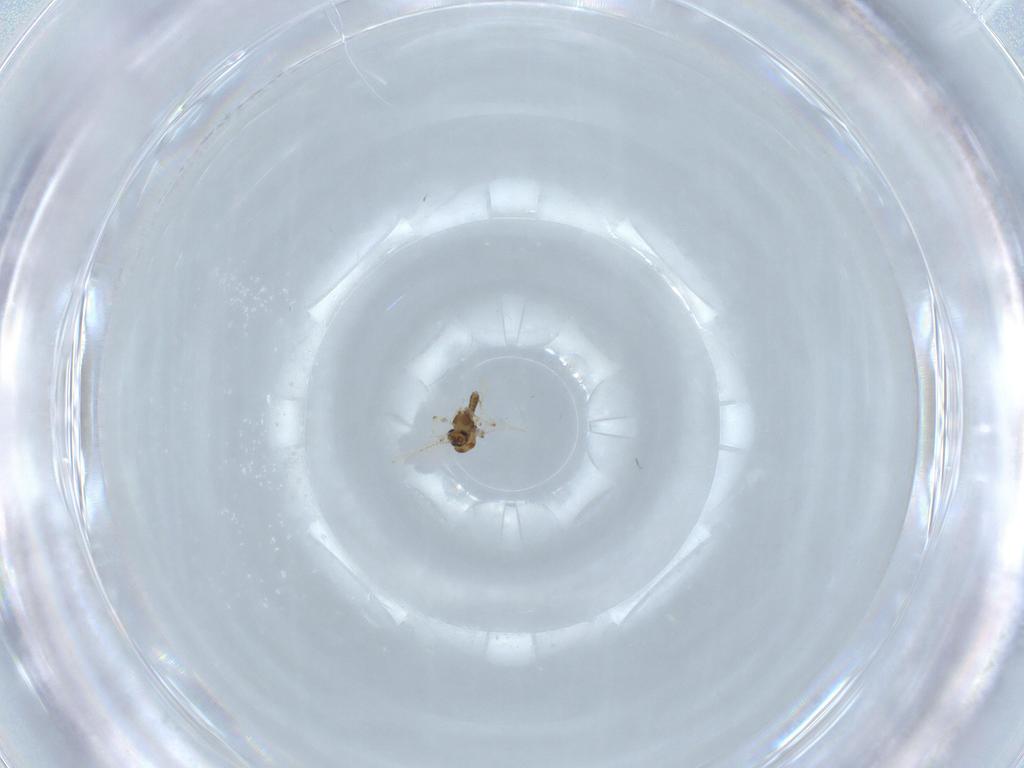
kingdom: Animalia
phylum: Arthropoda
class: Insecta
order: Diptera
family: Chironomidae
